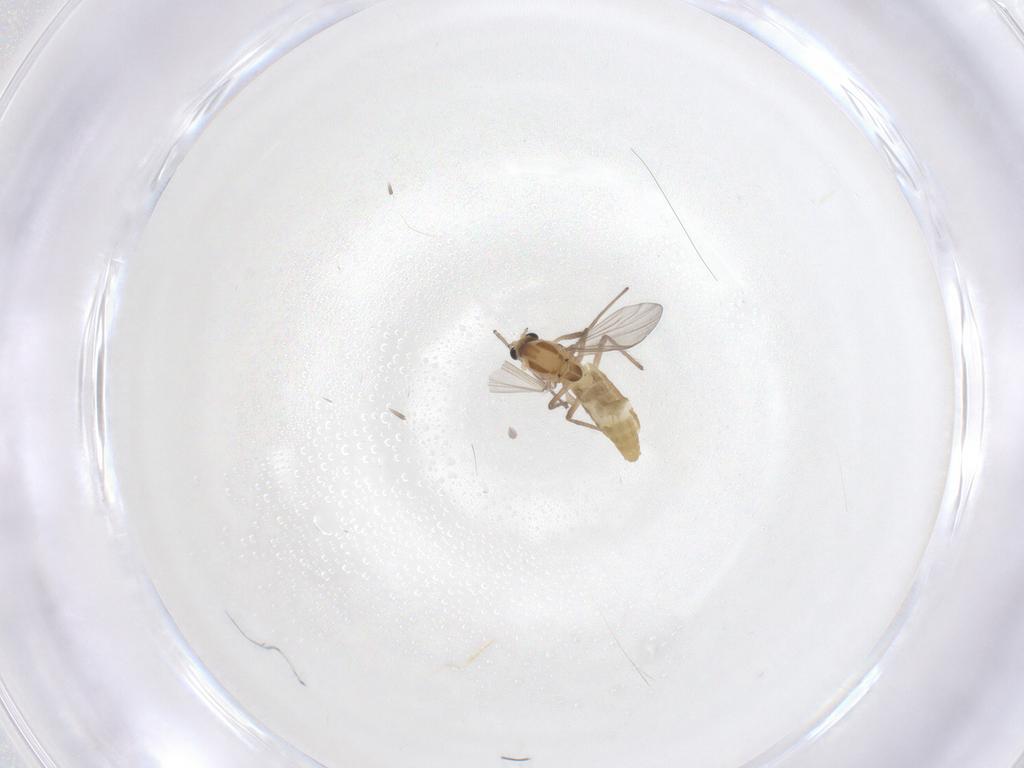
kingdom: Animalia
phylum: Arthropoda
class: Insecta
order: Diptera
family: Chironomidae
